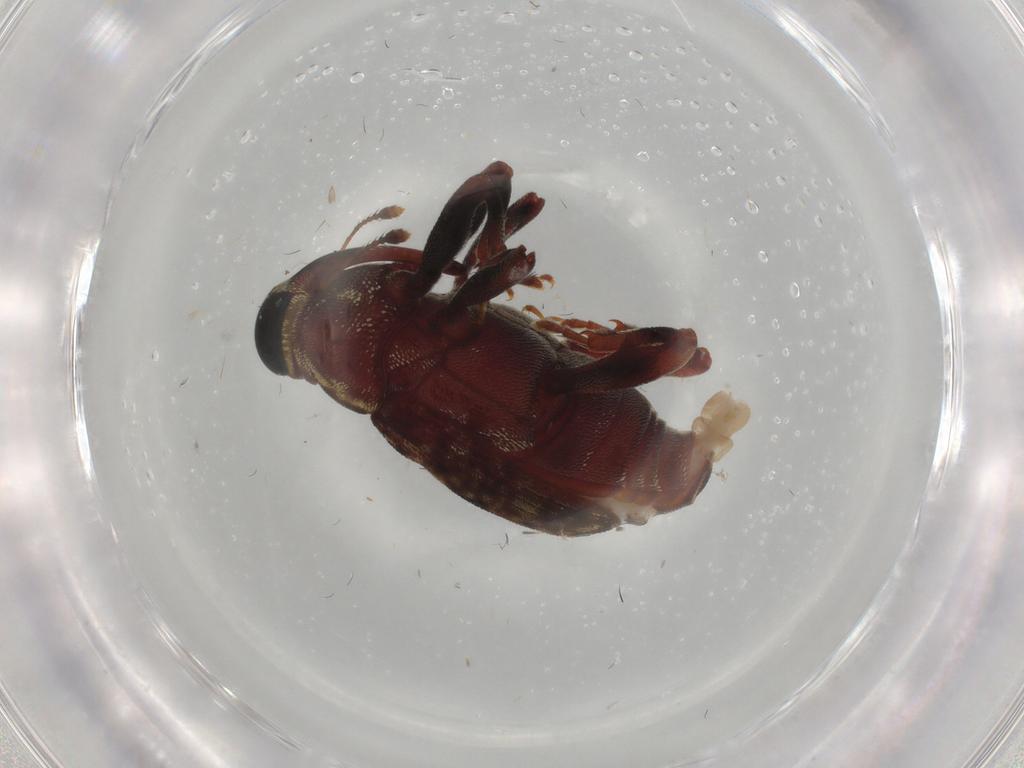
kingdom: Animalia
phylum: Arthropoda
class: Insecta
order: Coleoptera
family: Curculionidae
